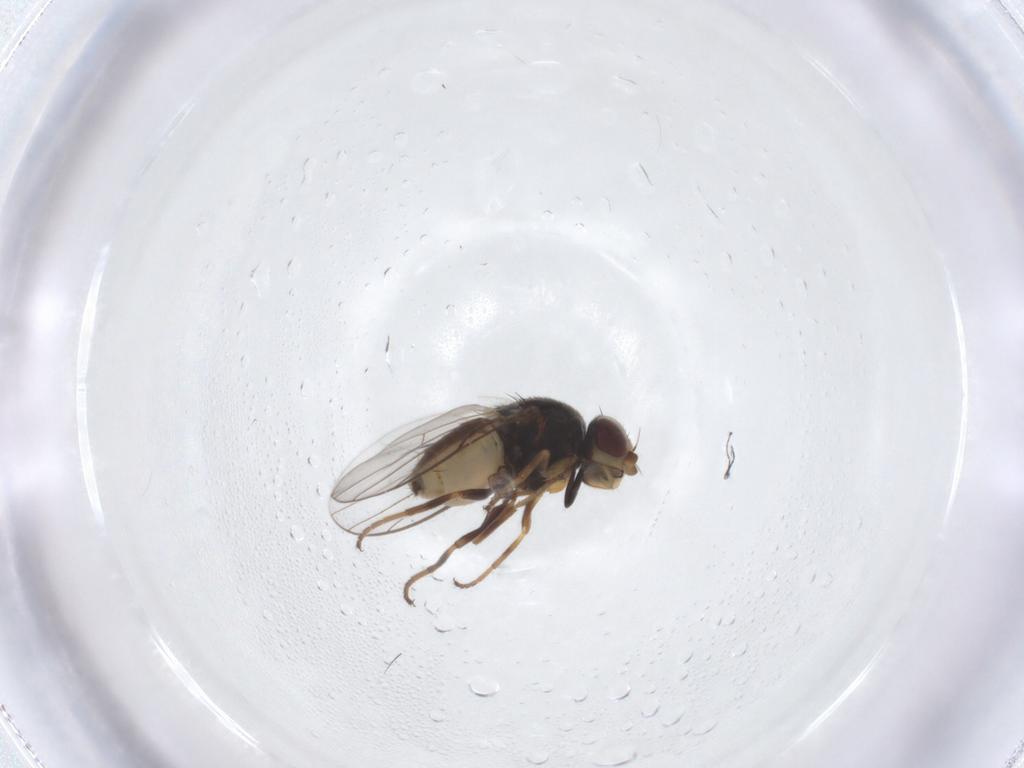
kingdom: Animalia
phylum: Arthropoda
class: Insecta
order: Diptera
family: Chloropidae
